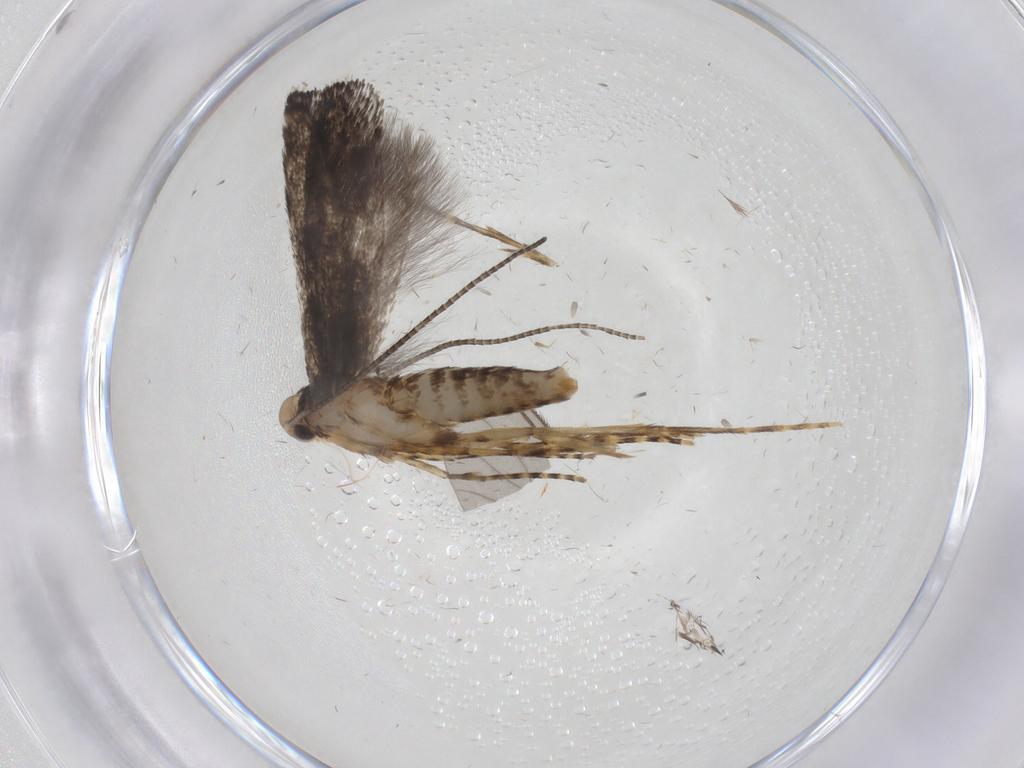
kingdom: Animalia
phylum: Arthropoda
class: Insecta
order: Lepidoptera
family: Gracillariidae
